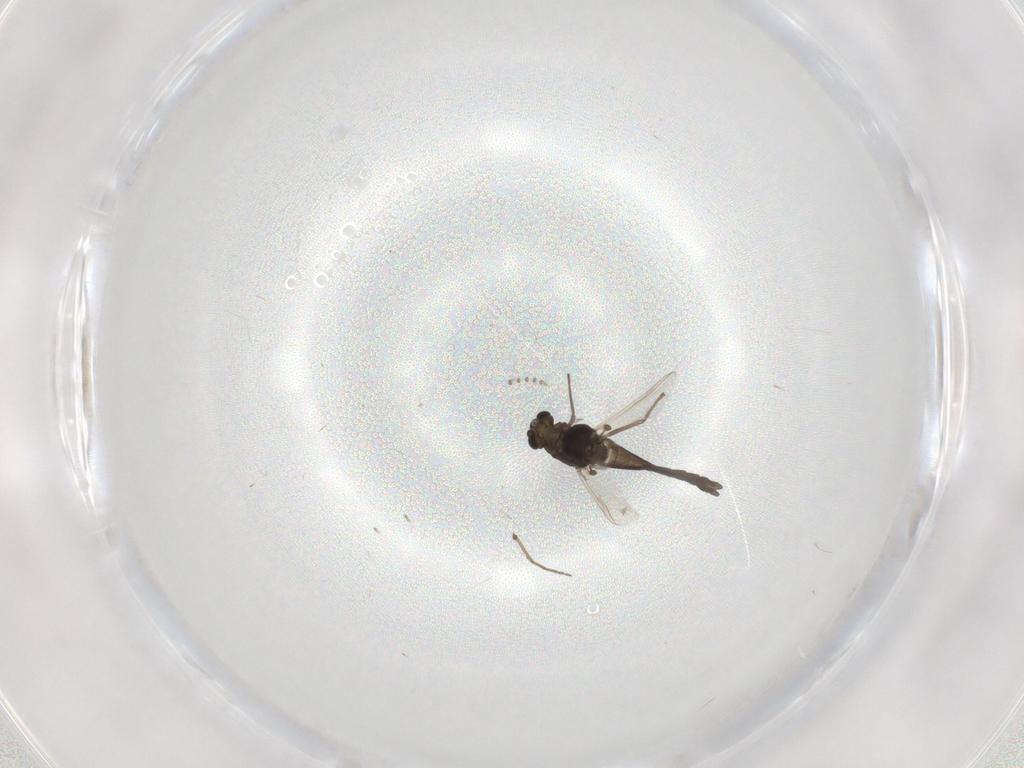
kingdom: Animalia
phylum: Arthropoda
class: Insecta
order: Diptera
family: Chironomidae
